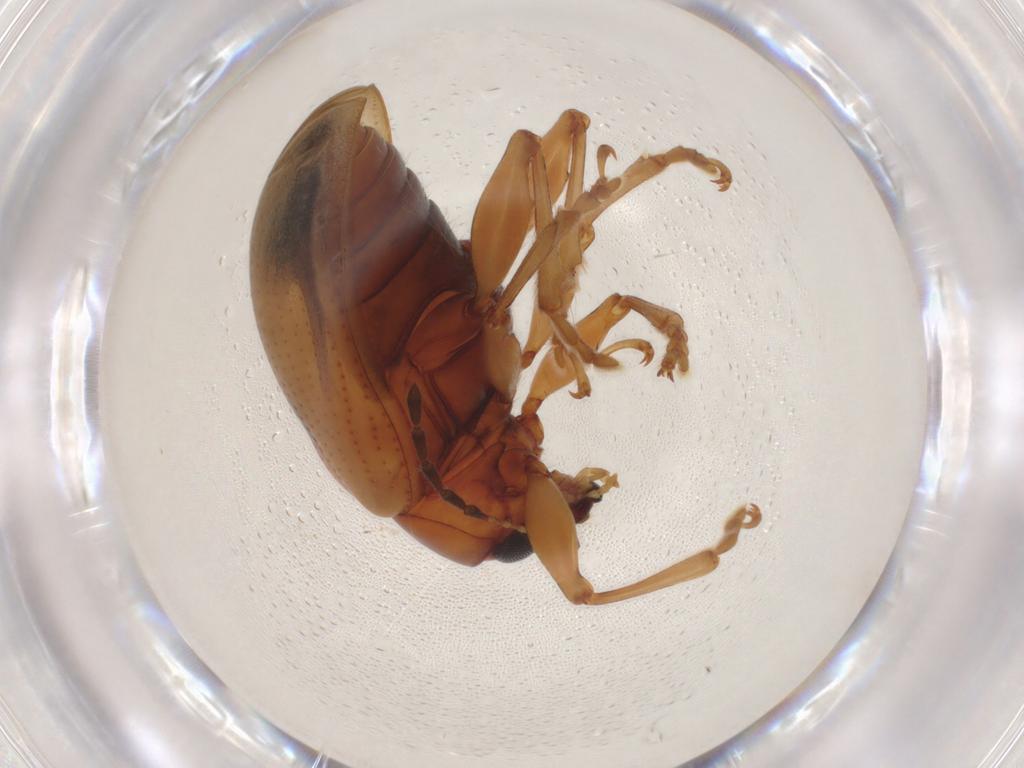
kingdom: Animalia
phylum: Arthropoda
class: Insecta
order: Coleoptera
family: Chrysomelidae
